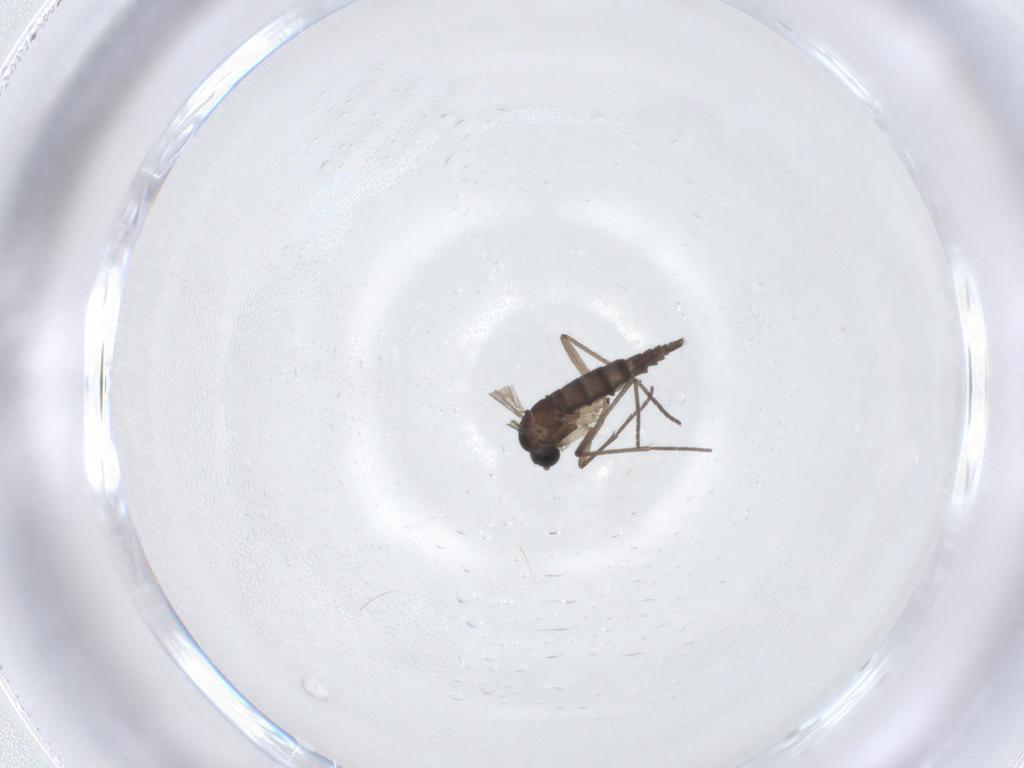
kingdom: Animalia
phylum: Arthropoda
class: Insecta
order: Diptera
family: Sciaridae
